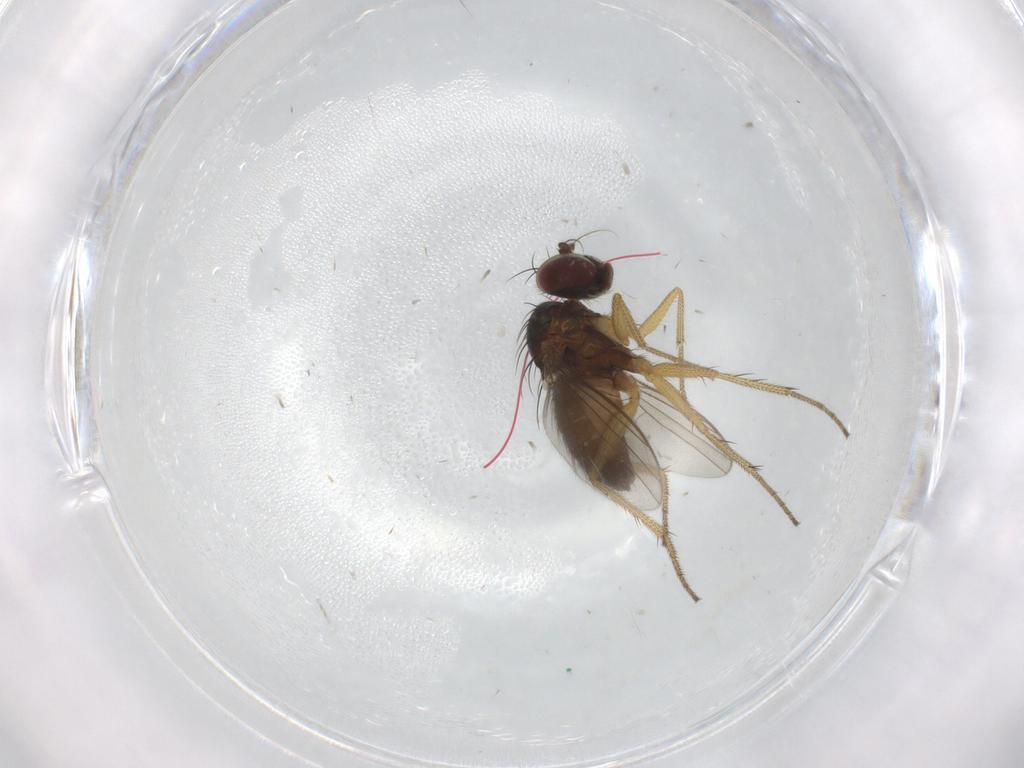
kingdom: Animalia
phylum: Arthropoda
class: Insecta
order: Diptera
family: Dolichopodidae
